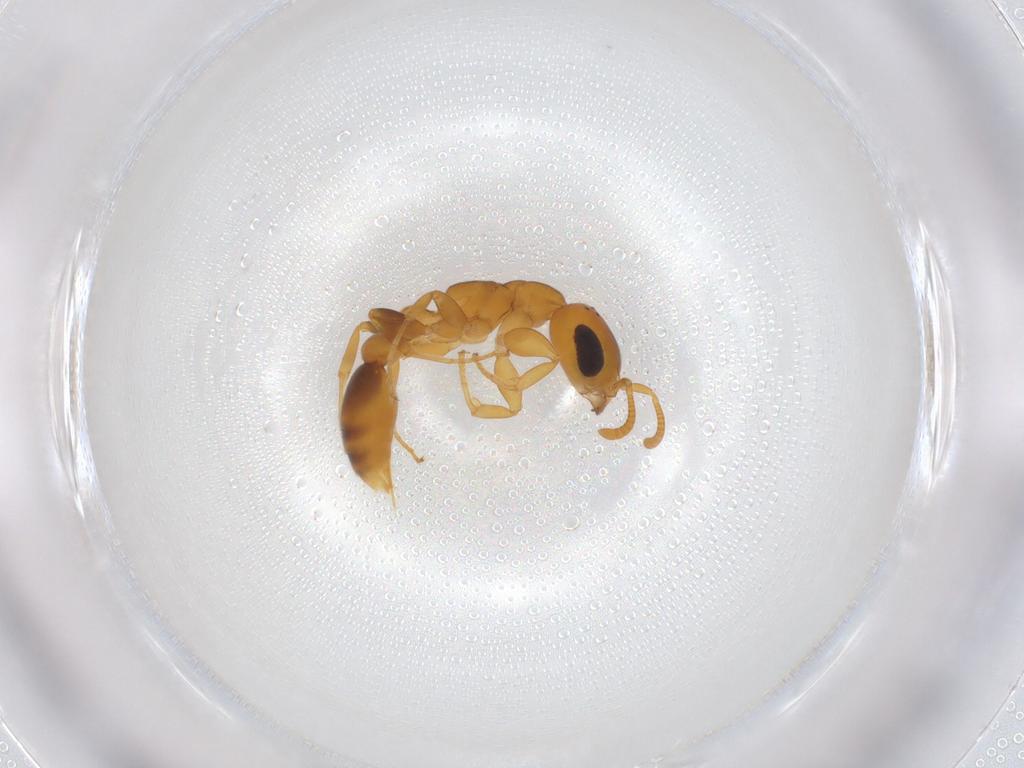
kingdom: Animalia
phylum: Arthropoda
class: Insecta
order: Hymenoptera
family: Formicidae
